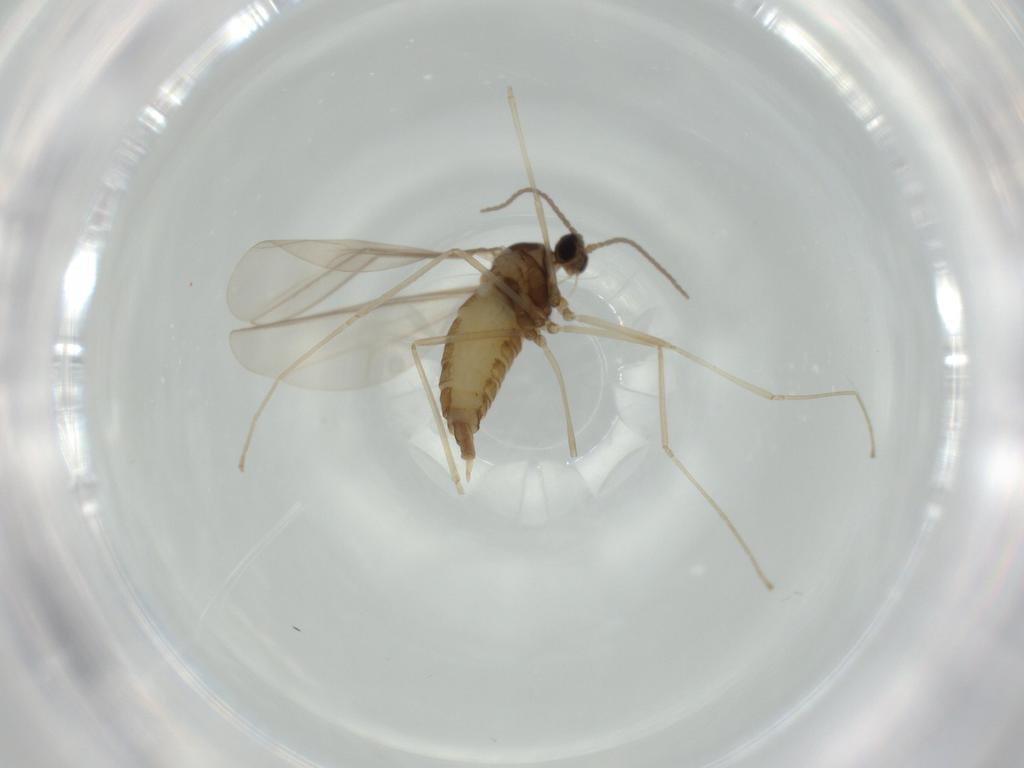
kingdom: Animalia
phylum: Arthropoda
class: Insecta
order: Diptera
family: Cecidomyiidae
